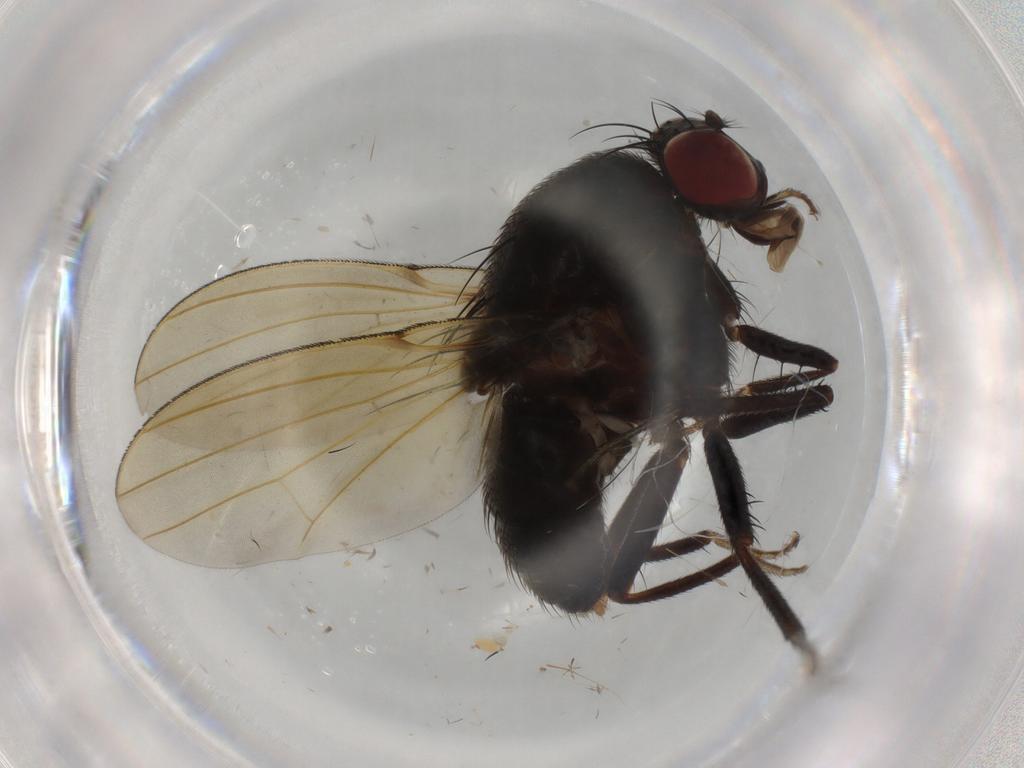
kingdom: Animalia
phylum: Arthropoda
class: Insecta
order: Diptera
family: Lauxaniidae
